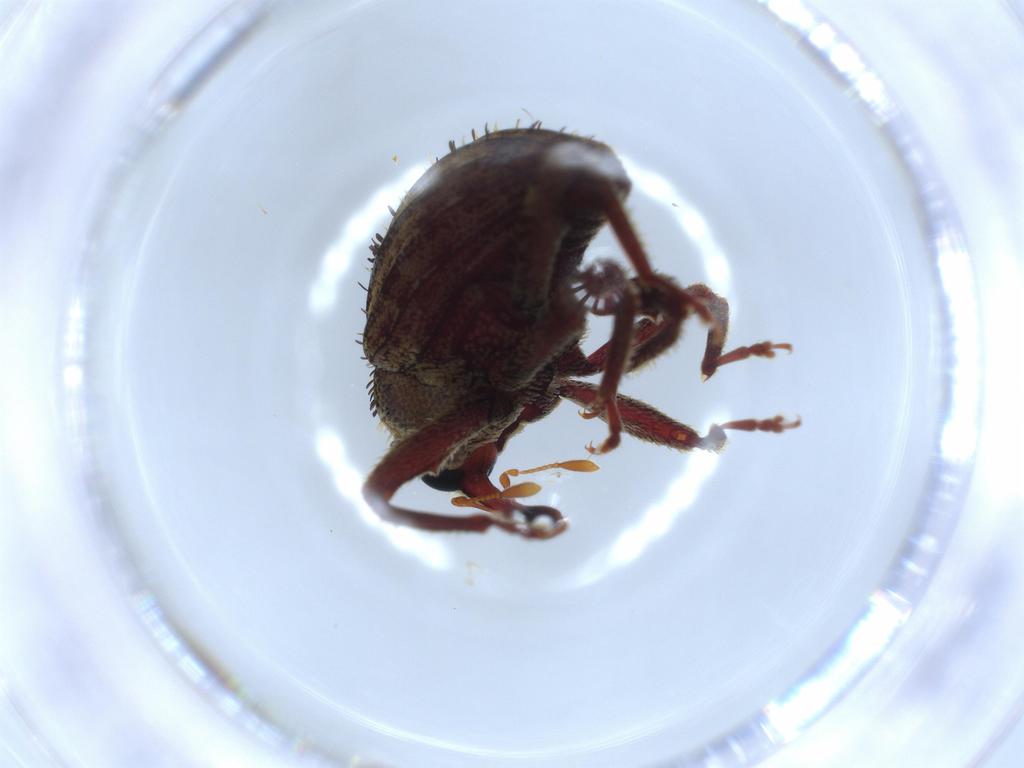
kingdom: Animalia
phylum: Arthropoda
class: Insecta
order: Coleoptera
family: Curculionidae
